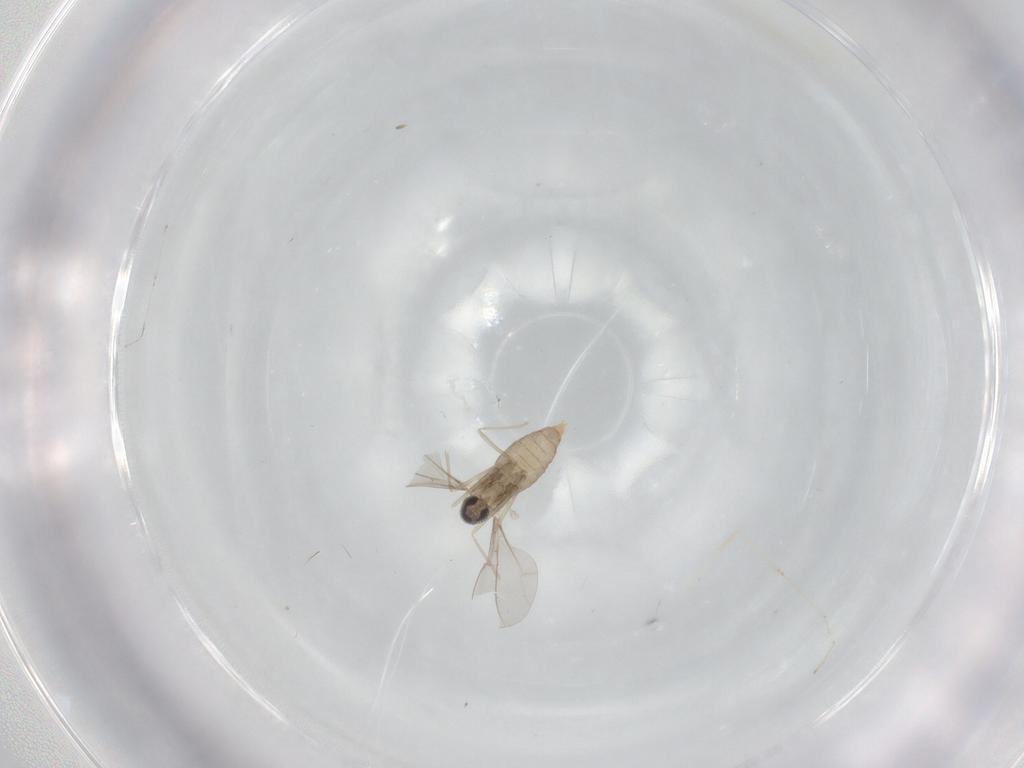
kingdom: Animalia
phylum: Arthropoda
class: Insecta
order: Diptera
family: Cecidomyiidae
